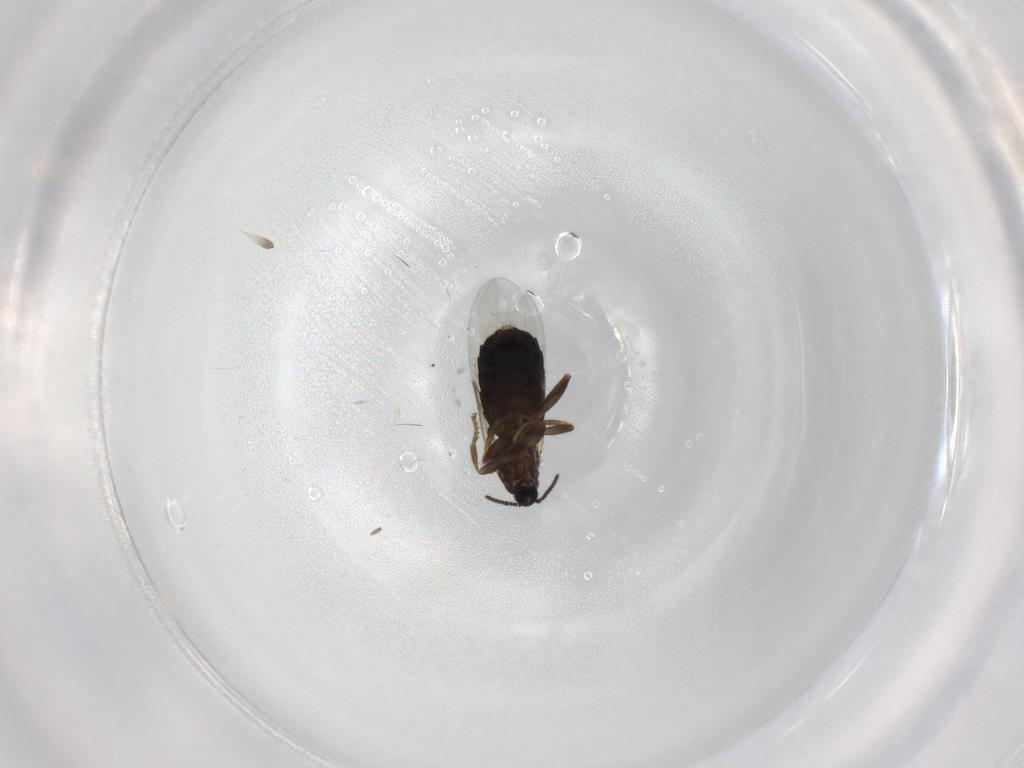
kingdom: Animalia
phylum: Arthropoda
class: Insecta
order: Diptera
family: Scatopsidae
